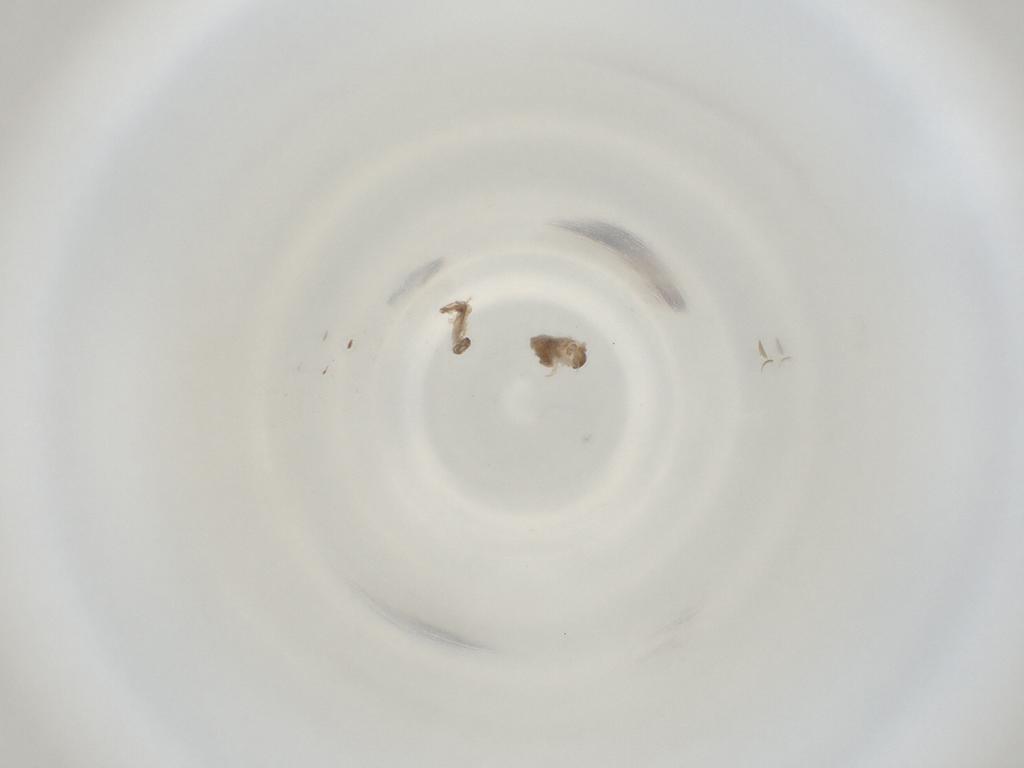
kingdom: Animalia
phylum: Arthropoda
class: Insecta
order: Diptera
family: Cecidomyiidae
